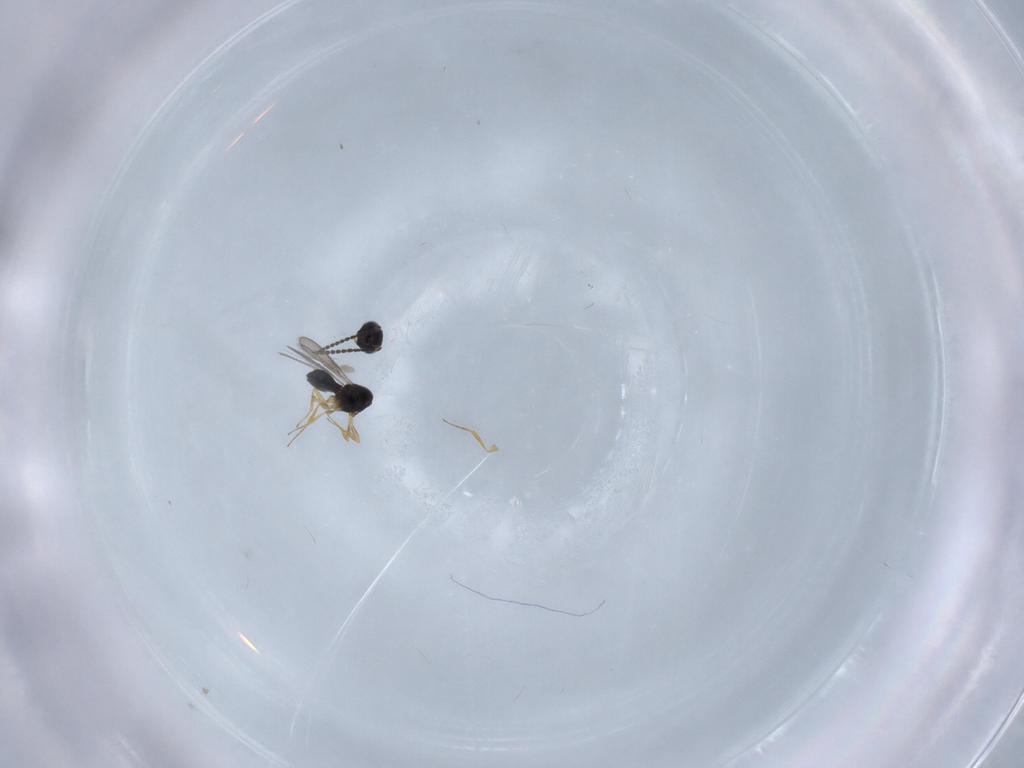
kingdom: Animalia
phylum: Arthropoda
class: Insecta
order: Hymenoptera
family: Scelionidae
